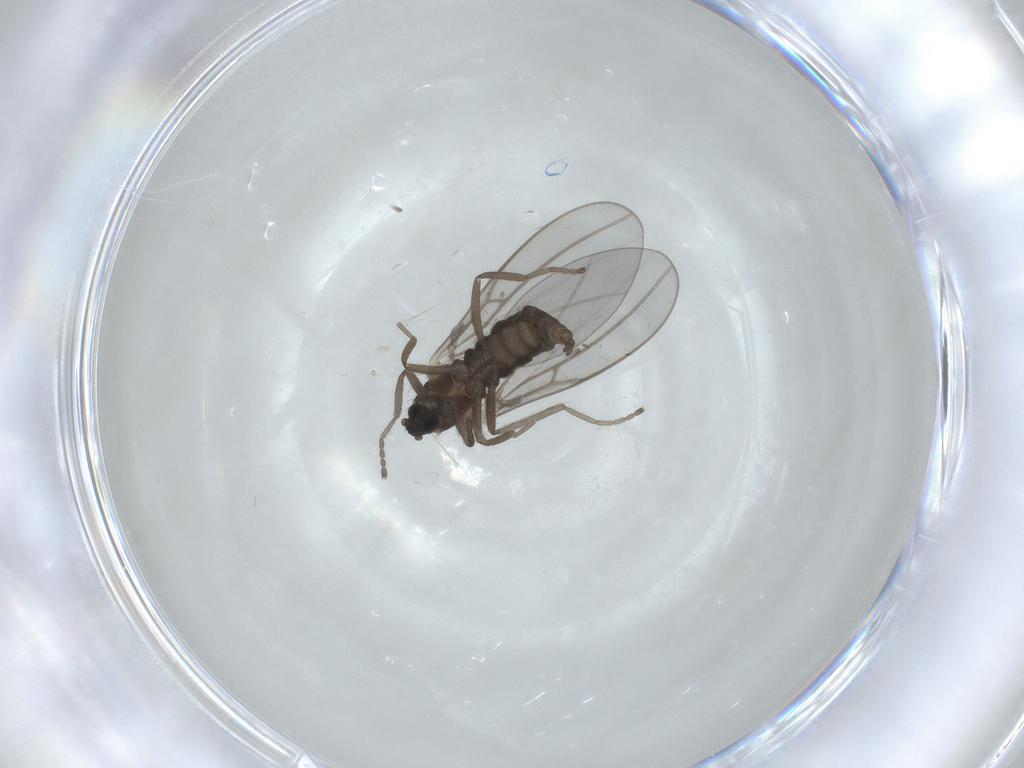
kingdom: Animalia
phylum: Arthropoda
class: Insecta
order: Diptera
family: Cecidomyiidae
